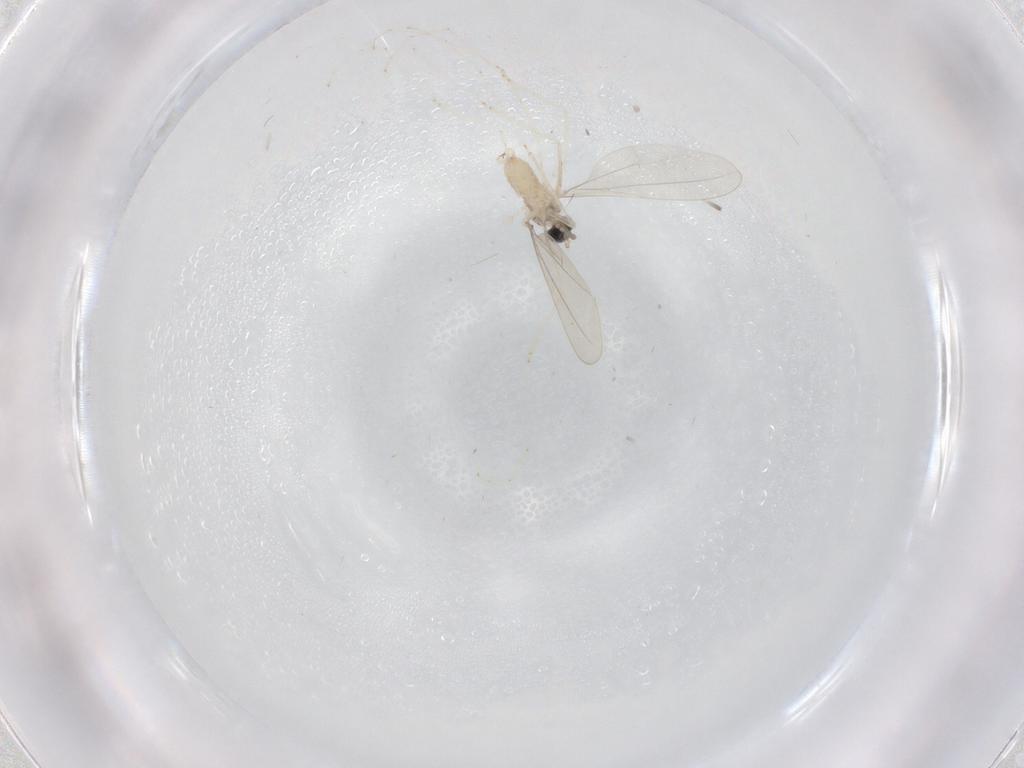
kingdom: Animalia
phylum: Arthropoda
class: Insecta
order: Diptera
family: Cecidomyiidae
